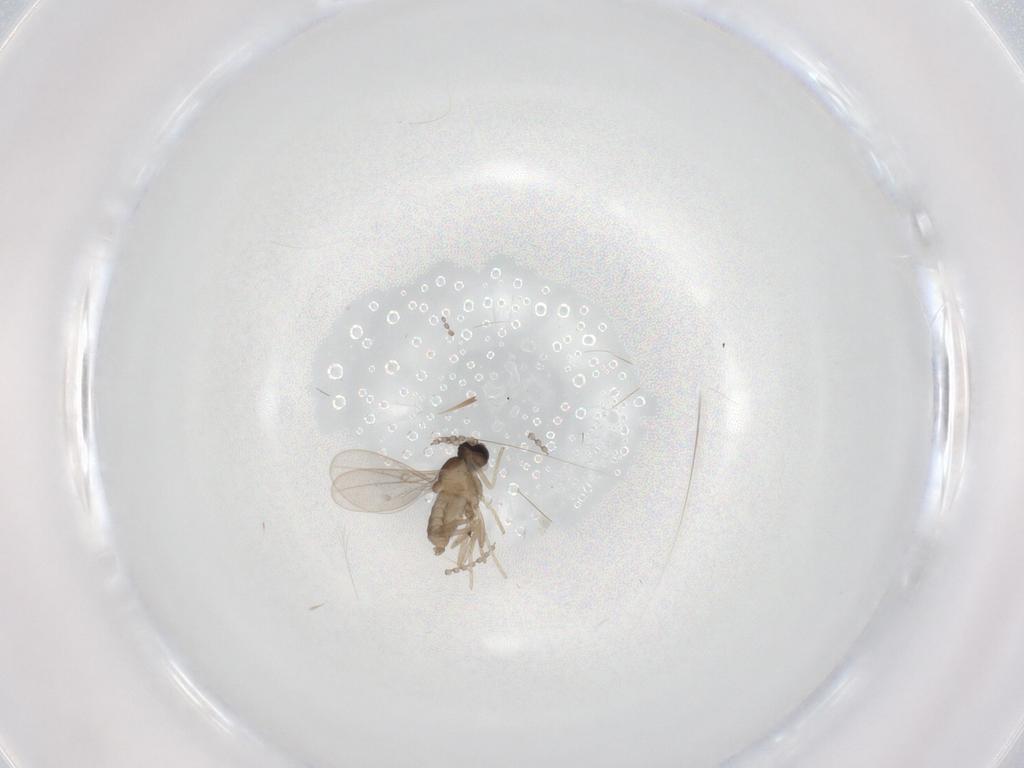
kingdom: Animalia
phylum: Arthropoda
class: Insecta
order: Diptera
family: Cecidomyiidae
